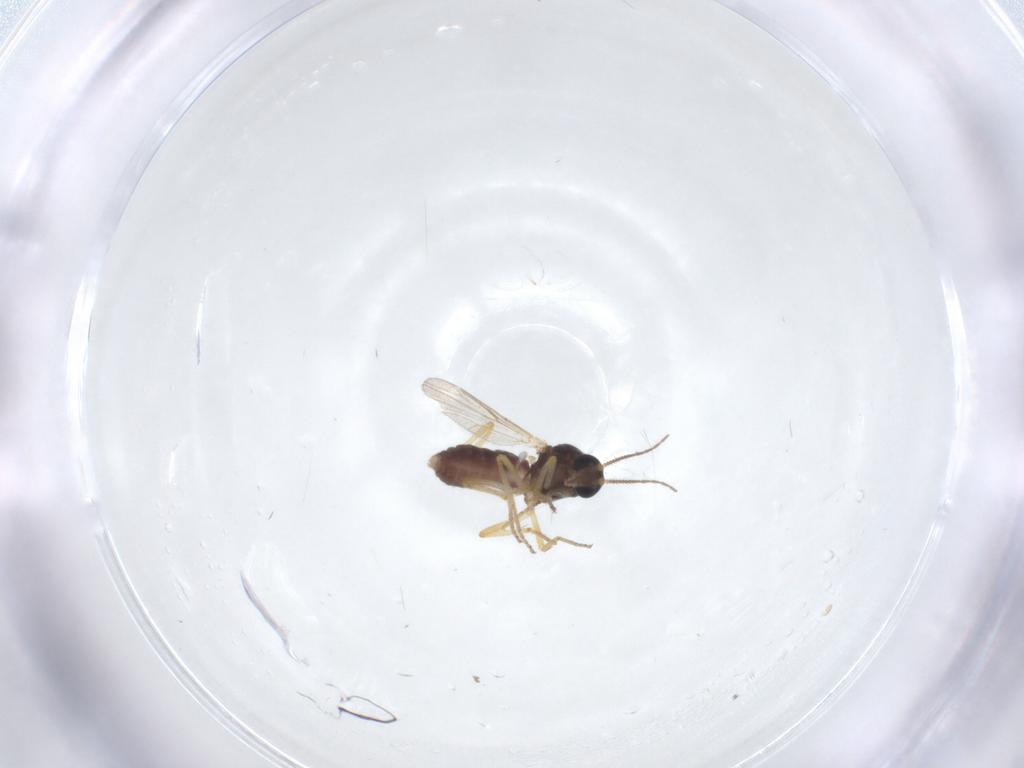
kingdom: Animalia
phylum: Arthropoda
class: Insecta
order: Diptera
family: Ceratopogonidae
